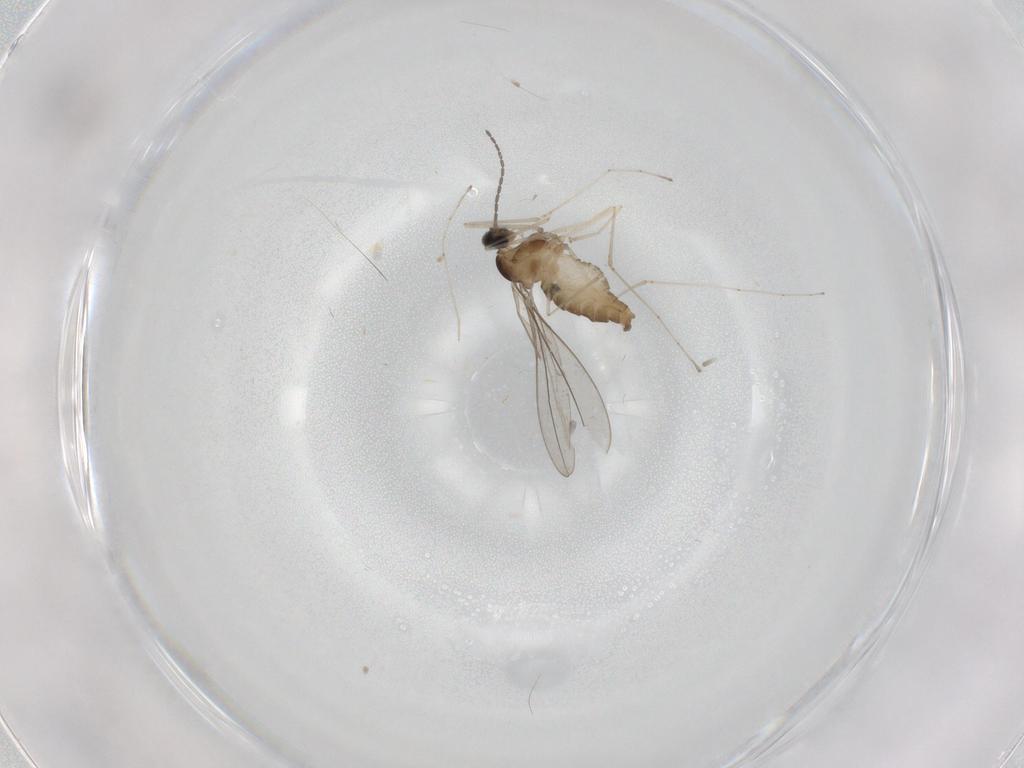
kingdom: Animalia
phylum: Arthropoda
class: Insecta
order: Diptera
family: Cecidomyiidae
